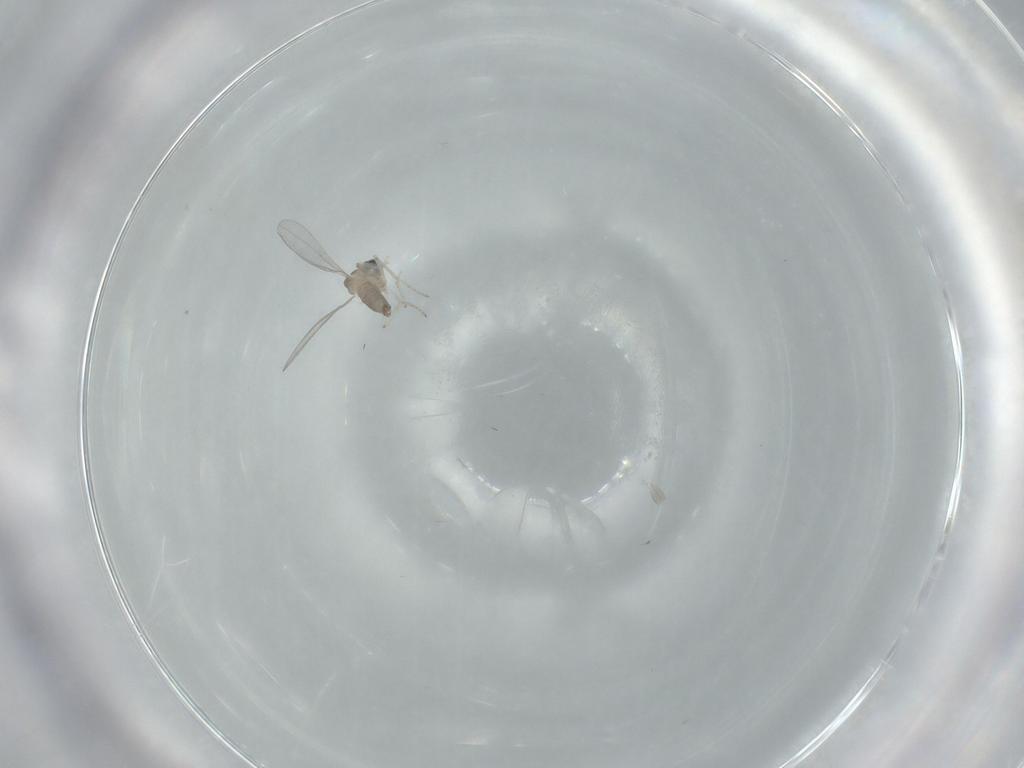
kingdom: Animalia
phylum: Arthropoda
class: Insecta
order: Diptera
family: Cecidomyiidae
